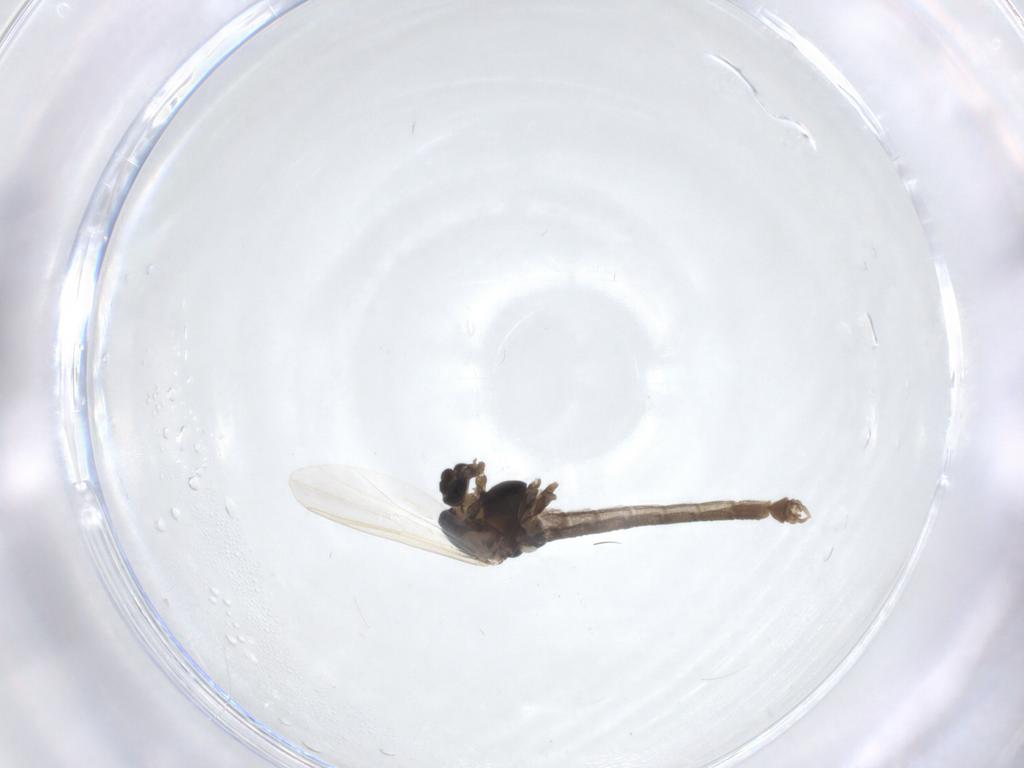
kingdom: Animalia
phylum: Arthropoda
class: Insecta
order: Diptera
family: Chironomidae
